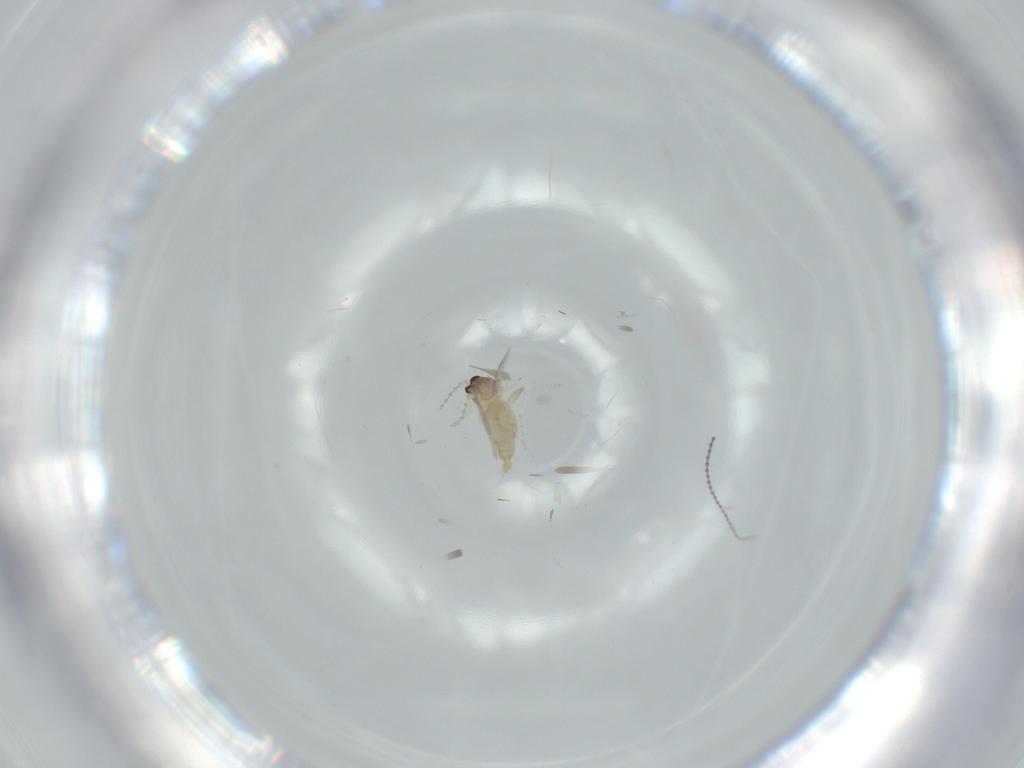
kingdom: Animalia
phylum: Arthropoda
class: Insecta
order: Diptera
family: Cecidomyiidae
